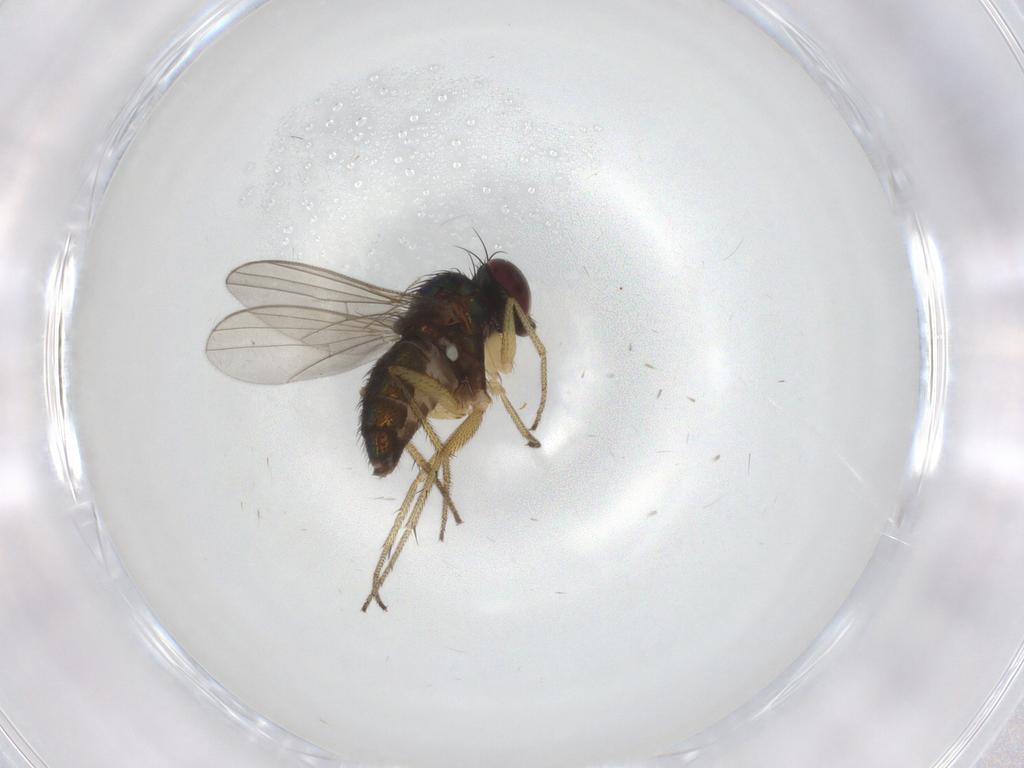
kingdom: Animalia
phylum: Arthropoda
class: Insecta
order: Diptera
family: Dolichopodidae
